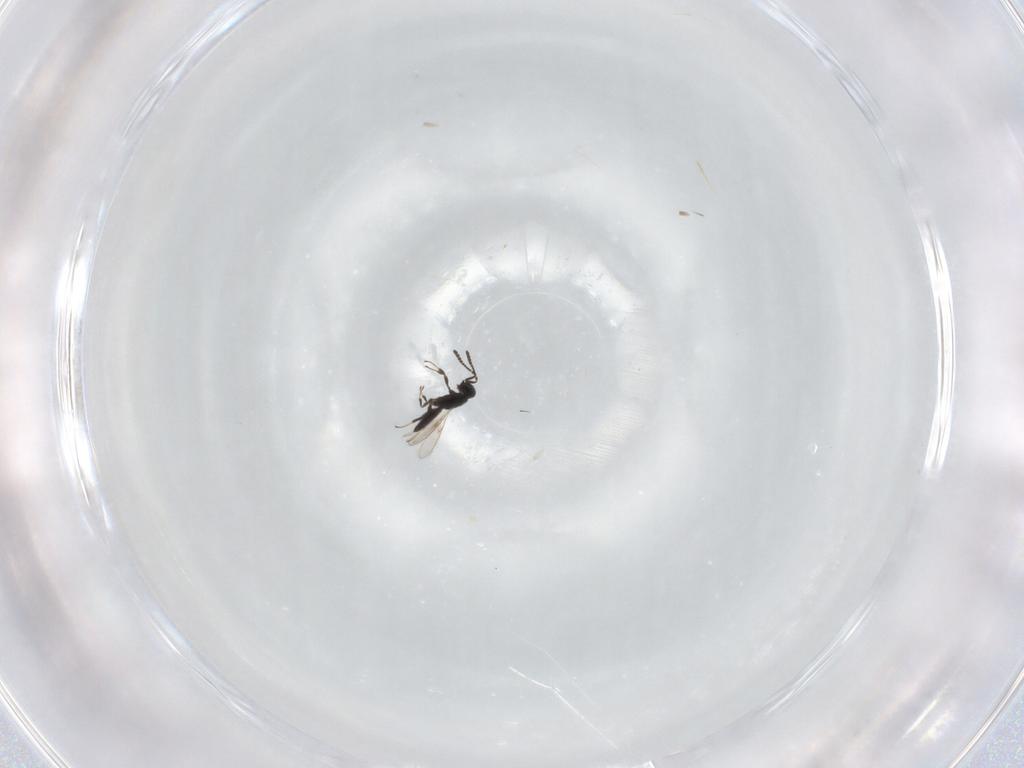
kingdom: Animalia
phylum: Arthropoda
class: Insecta
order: Hymenoptera
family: Scelionidae
